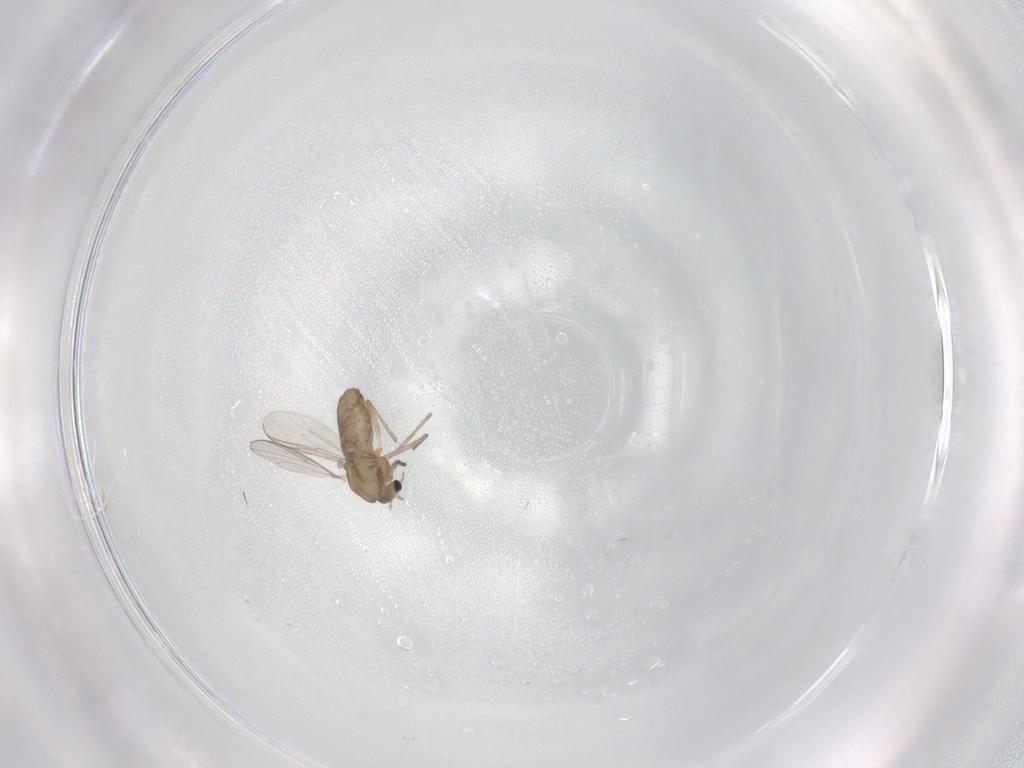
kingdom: Animalia
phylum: Arthropoda
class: Insecta
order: Diptera
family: Chironomidae
